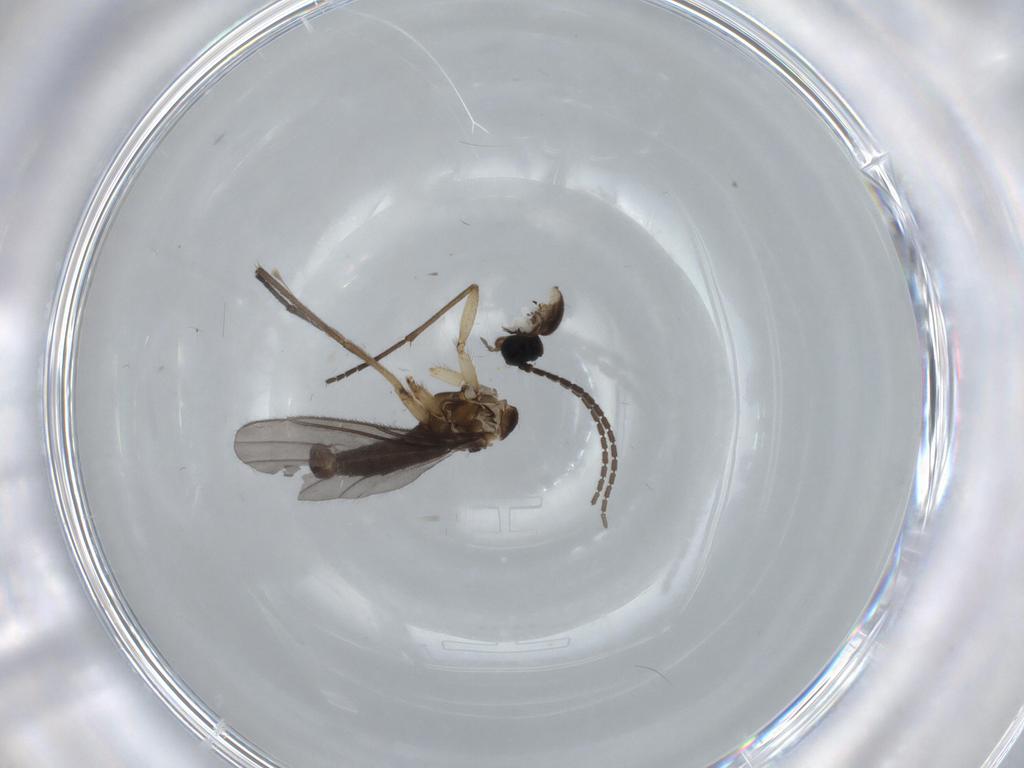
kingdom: Animalia
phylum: Arthropoda
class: Insecta
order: Diptera
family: Sciaridae
